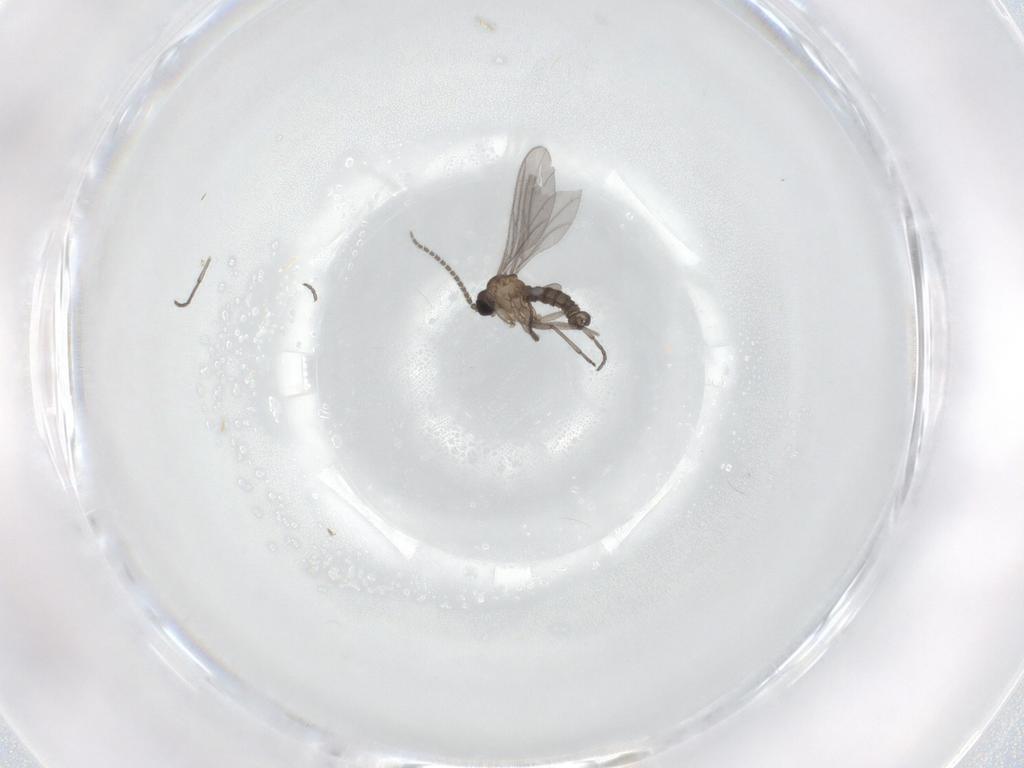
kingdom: Animalia
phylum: Arthropoda
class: Insecta
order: Diptera
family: Sciaridae
